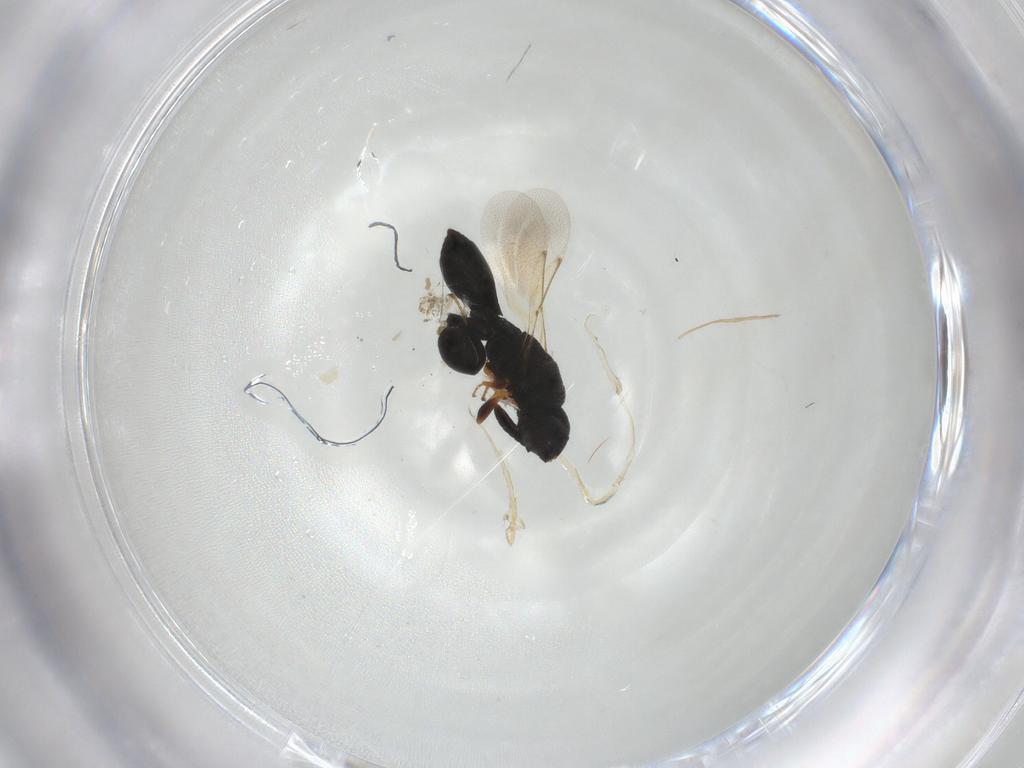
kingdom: Animalia
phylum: Arthropoda
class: Insecta
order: Hymenoptera
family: Chalcididae
